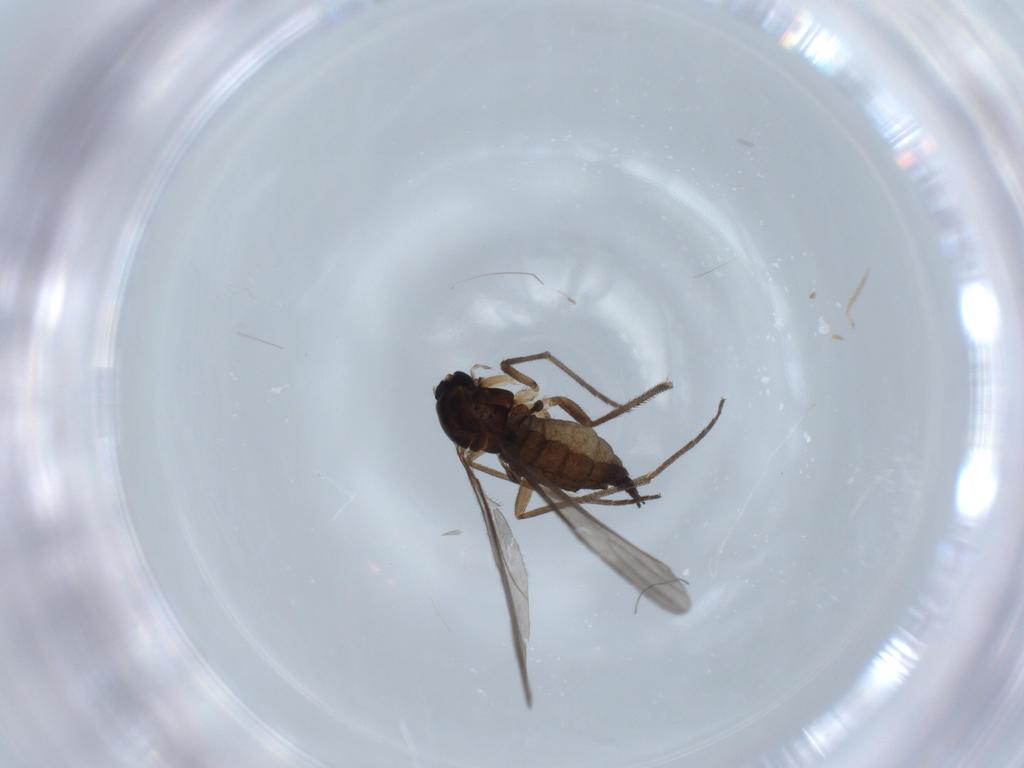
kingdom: Animalia
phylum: Arthropoda
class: Insecta
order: Diptera
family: Sciaridae
